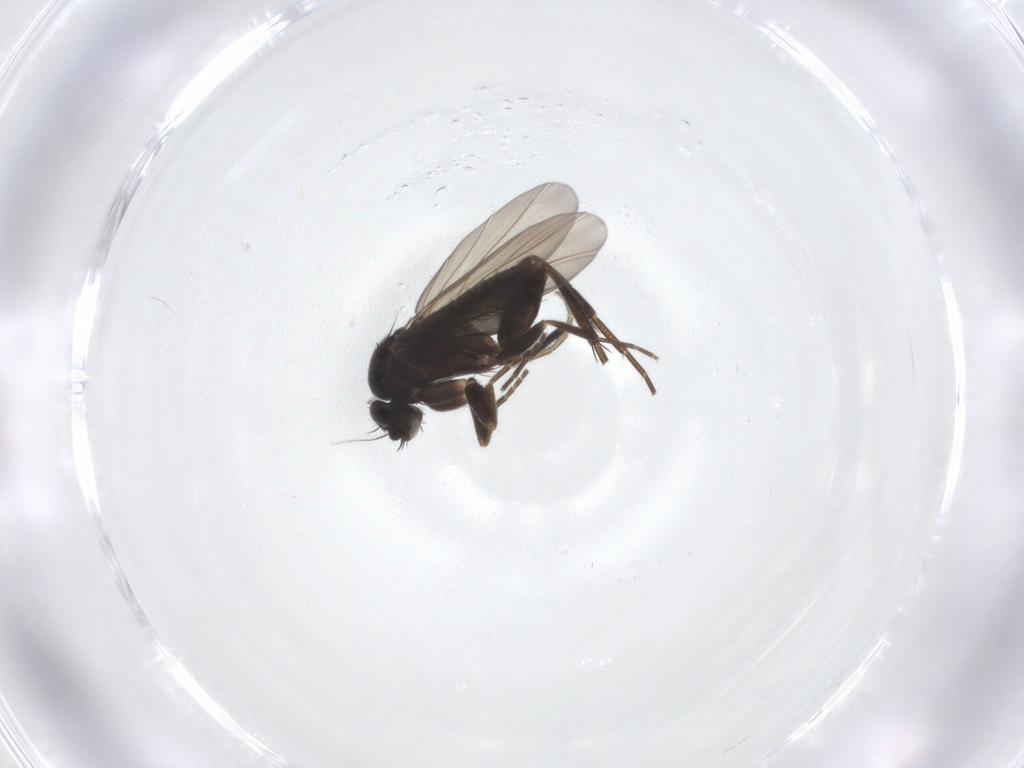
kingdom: Animalia
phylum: Arthropoda
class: Insecta
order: Diptera
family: Phoridae
